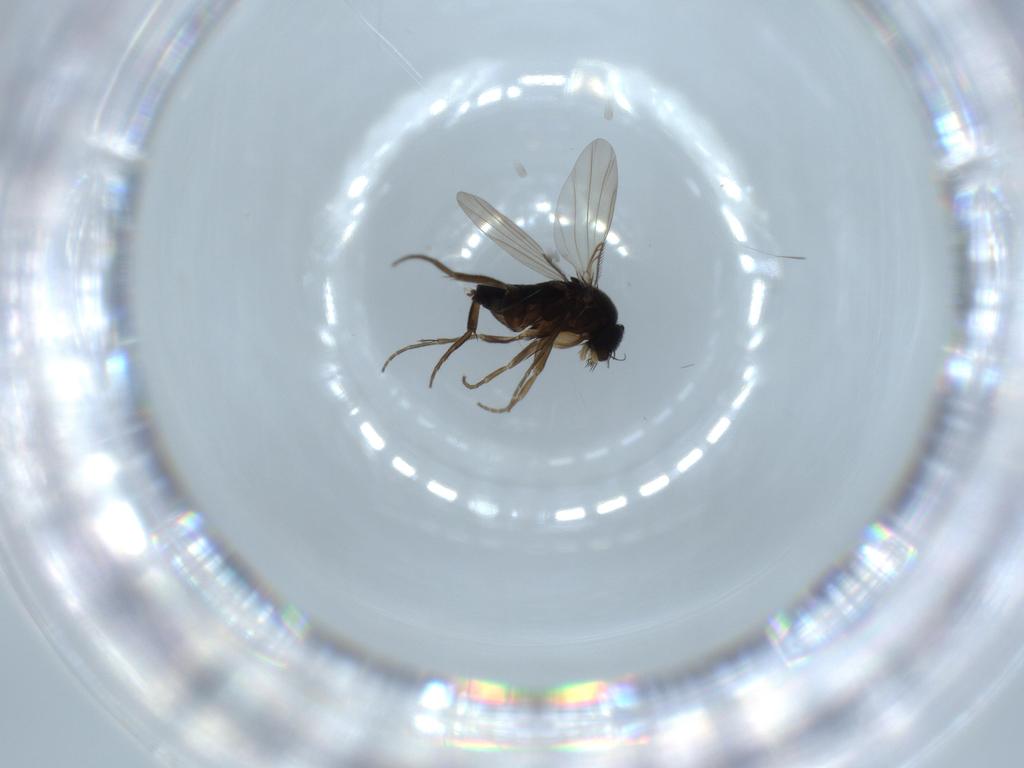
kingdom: Animalia
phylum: Arthropoda
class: Insecta
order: Diptera
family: Phoridae
